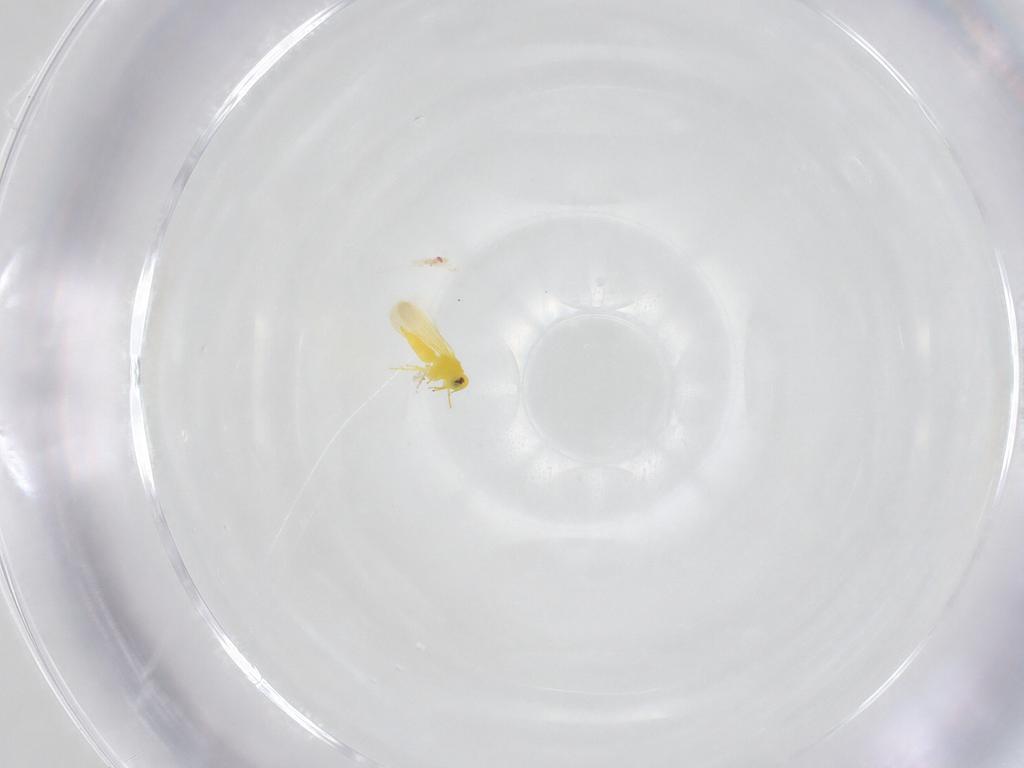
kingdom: Animalia
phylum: Arthropoda
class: Insecta
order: Hemiptera
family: Aleyrodidae
